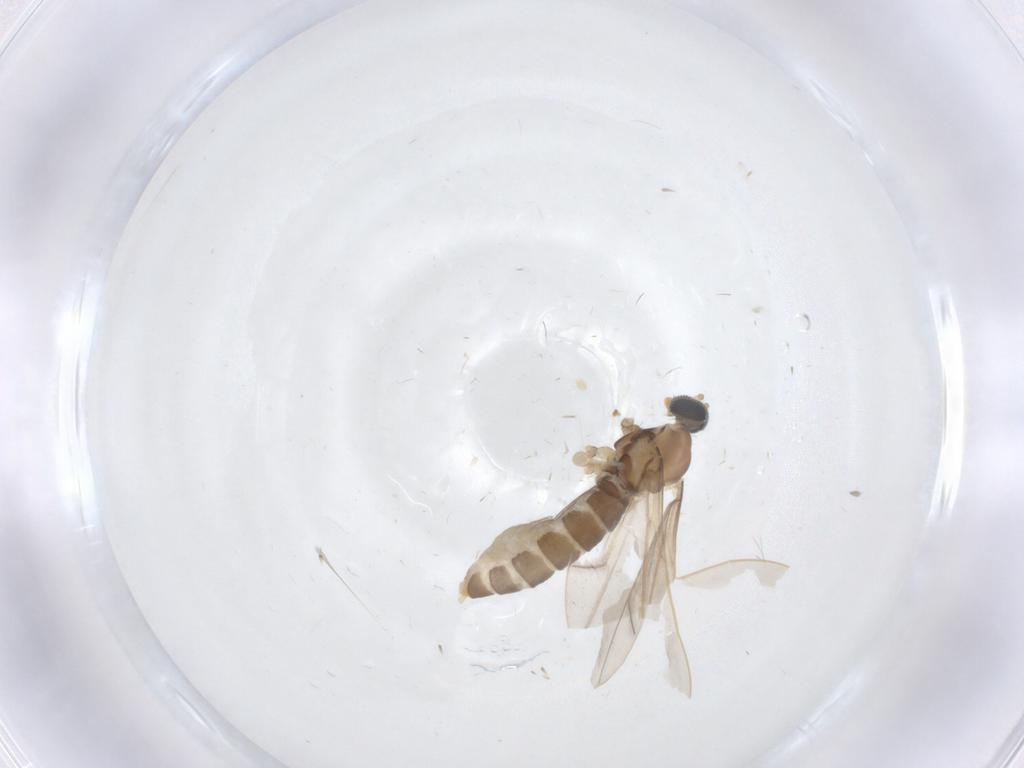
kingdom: Animalia
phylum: Arthropoda
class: Insecta
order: Diptera
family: Cecidomyiidae
